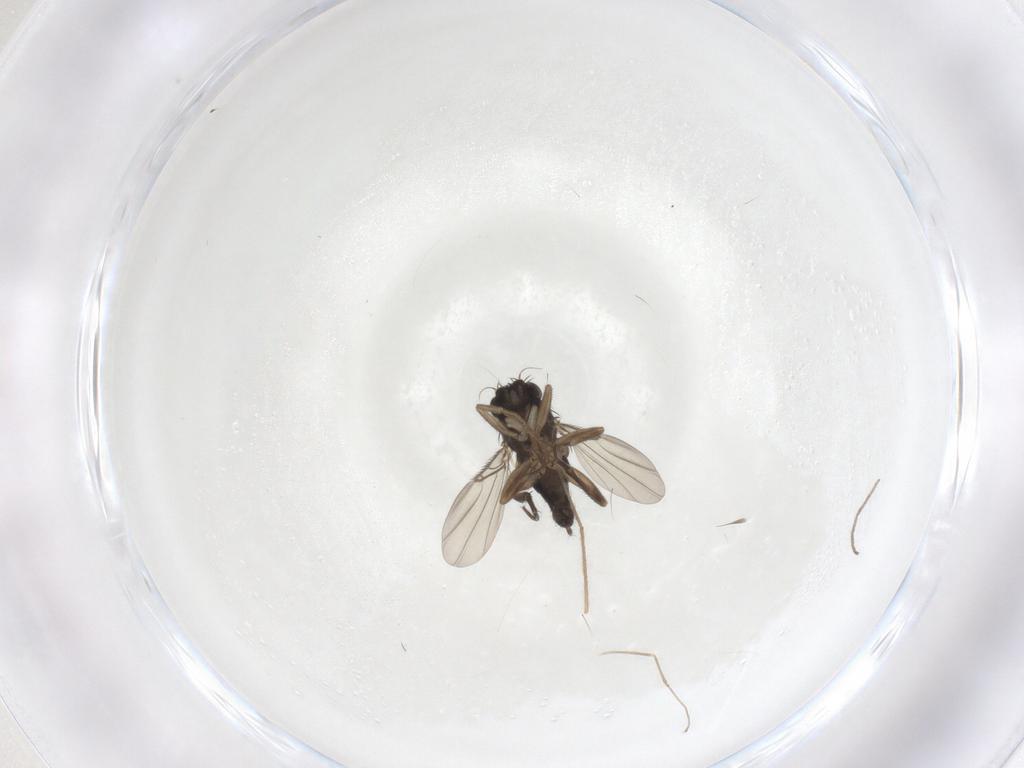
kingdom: Animalia
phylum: Arthropoda
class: Insecta
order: Diptera
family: Phoridae
